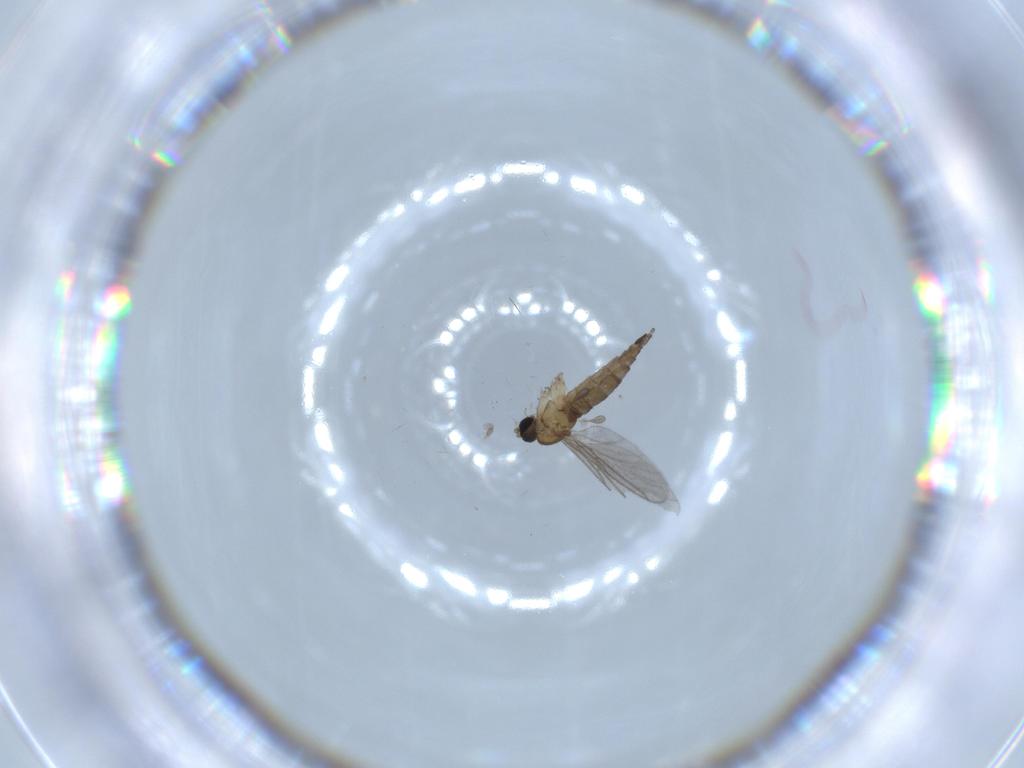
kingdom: Animalia
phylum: Arthropoda
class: Insecta
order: Diptera
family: Sciaridae
